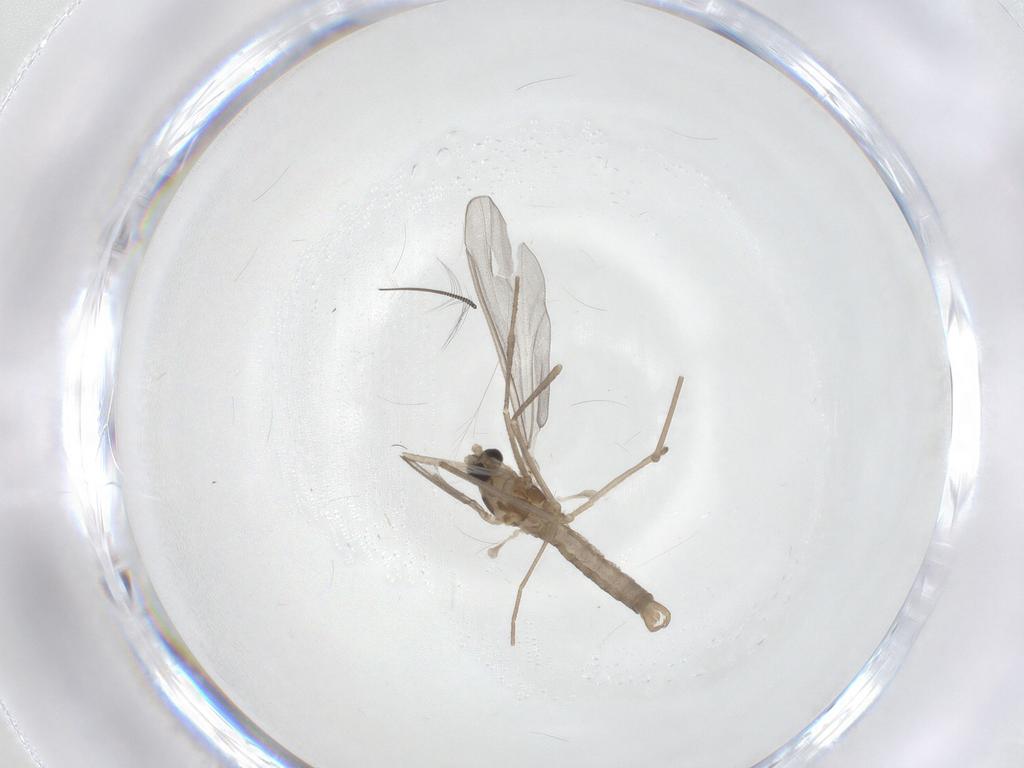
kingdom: Animalia
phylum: Arthropoda
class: Insecta
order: Diptera
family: Cecidomyiidae
